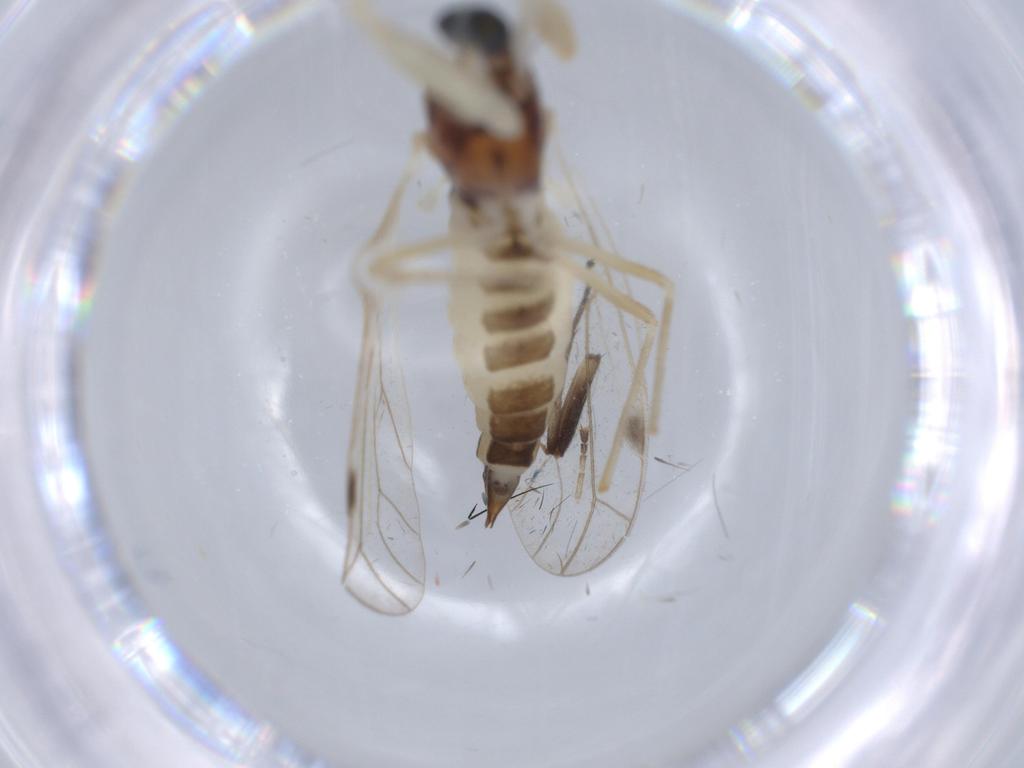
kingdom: Animalia
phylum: Arthropoda
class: Insecta
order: Diptera
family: Empididae
